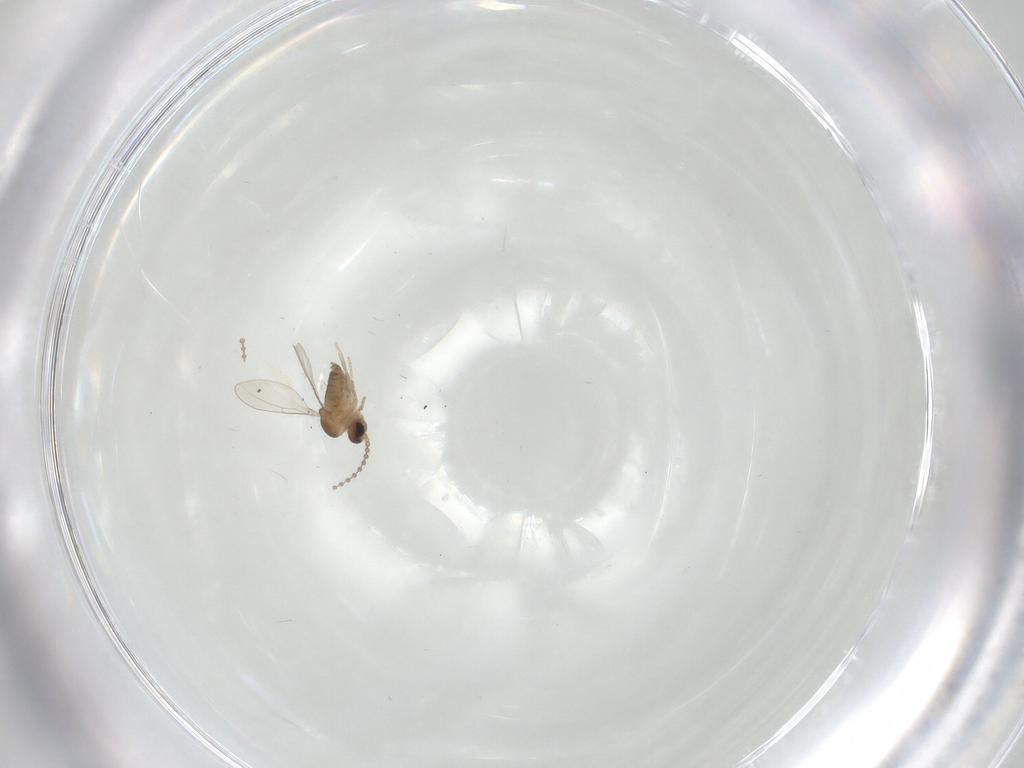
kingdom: Animalia
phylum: Arthropoda
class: Insecta
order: Diptera
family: Cecidomyiidae
